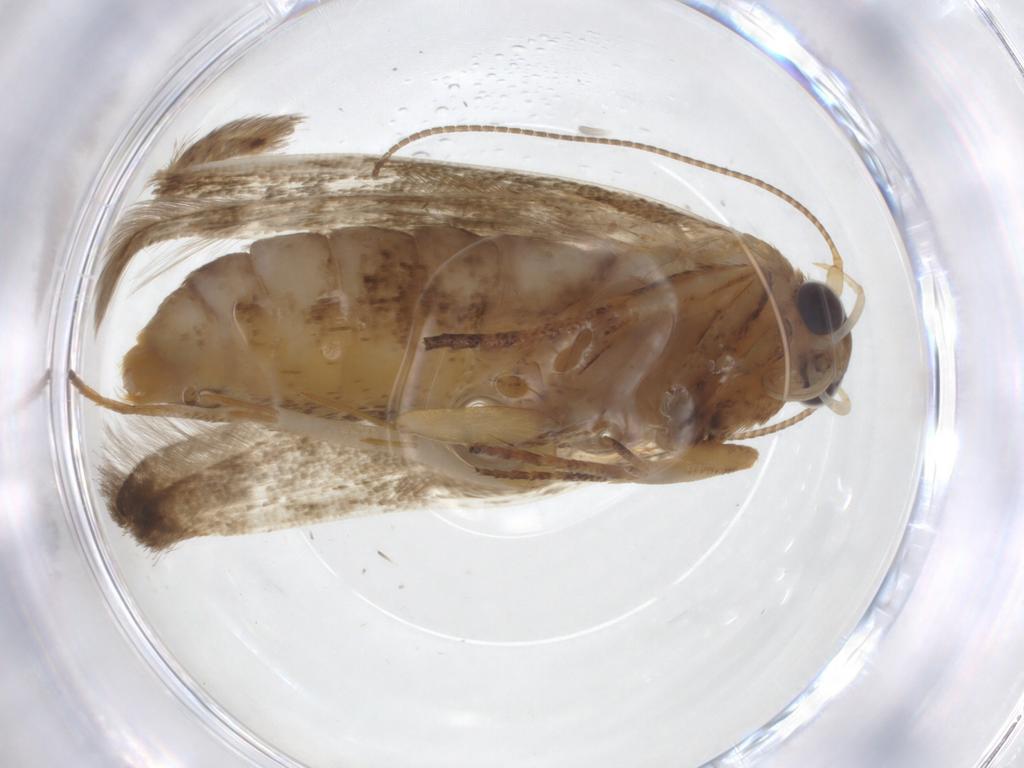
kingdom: Animalia
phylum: Arthropoda
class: Insecta
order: Lepidoptera
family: Coleophoridae
